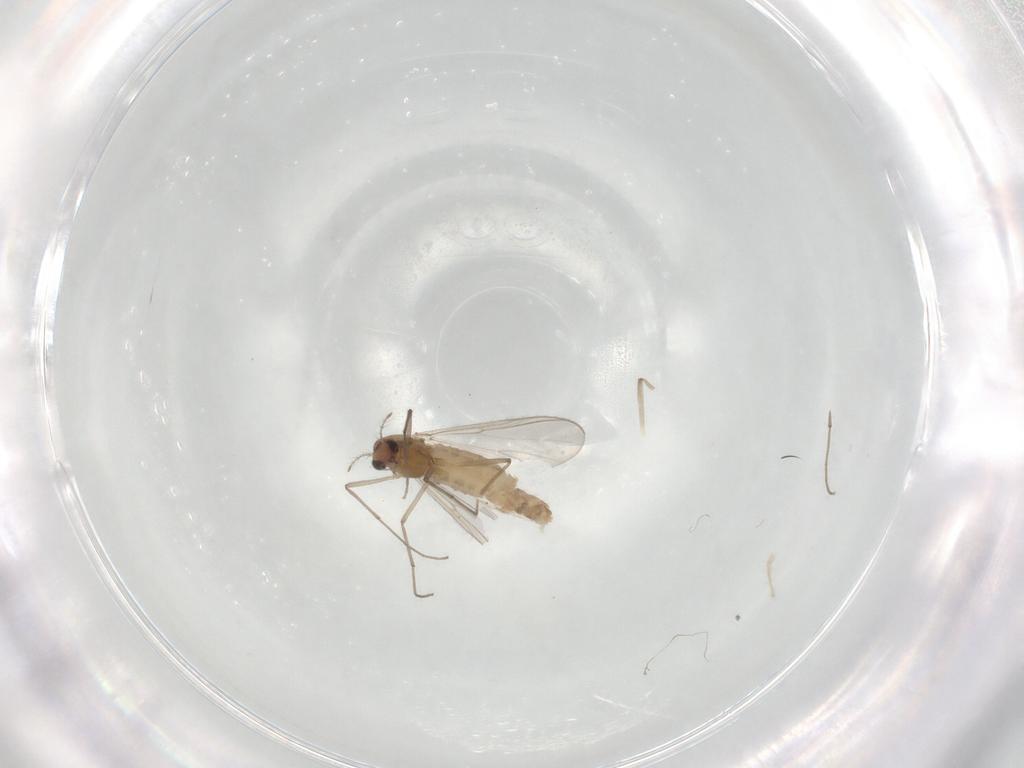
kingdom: Animalia
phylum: Arthropoda
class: Insecta
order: Diptera
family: Chironomidae
